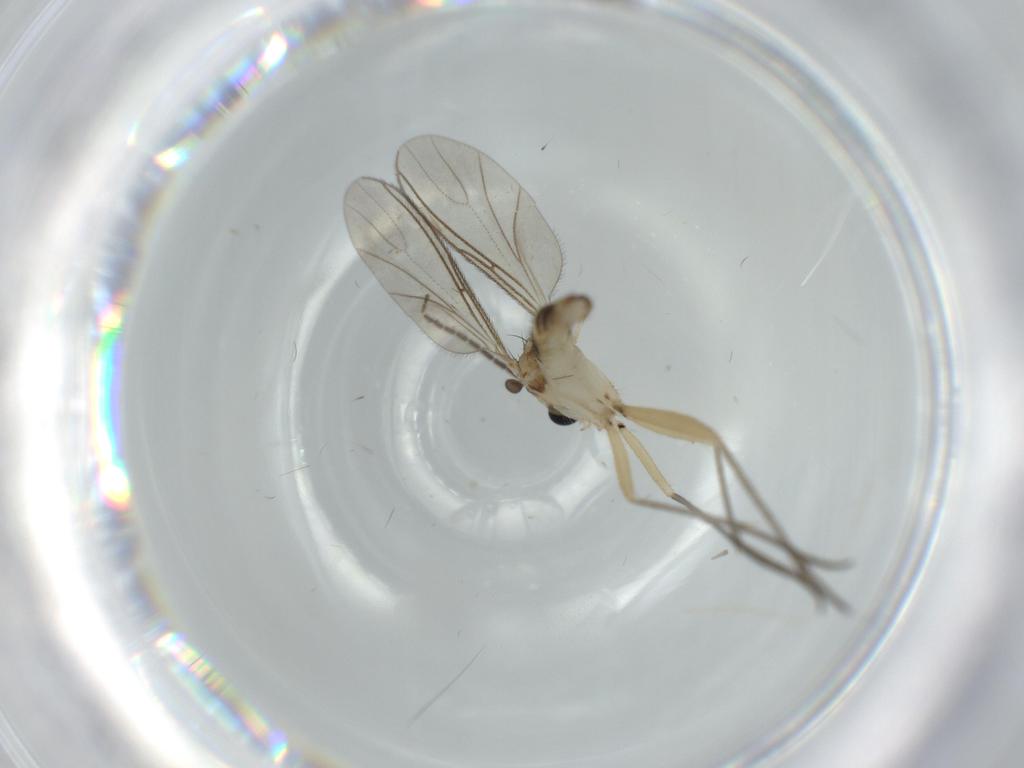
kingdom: Animalia
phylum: Arthropoda
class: Insecta
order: Diptera
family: Sciaridae
